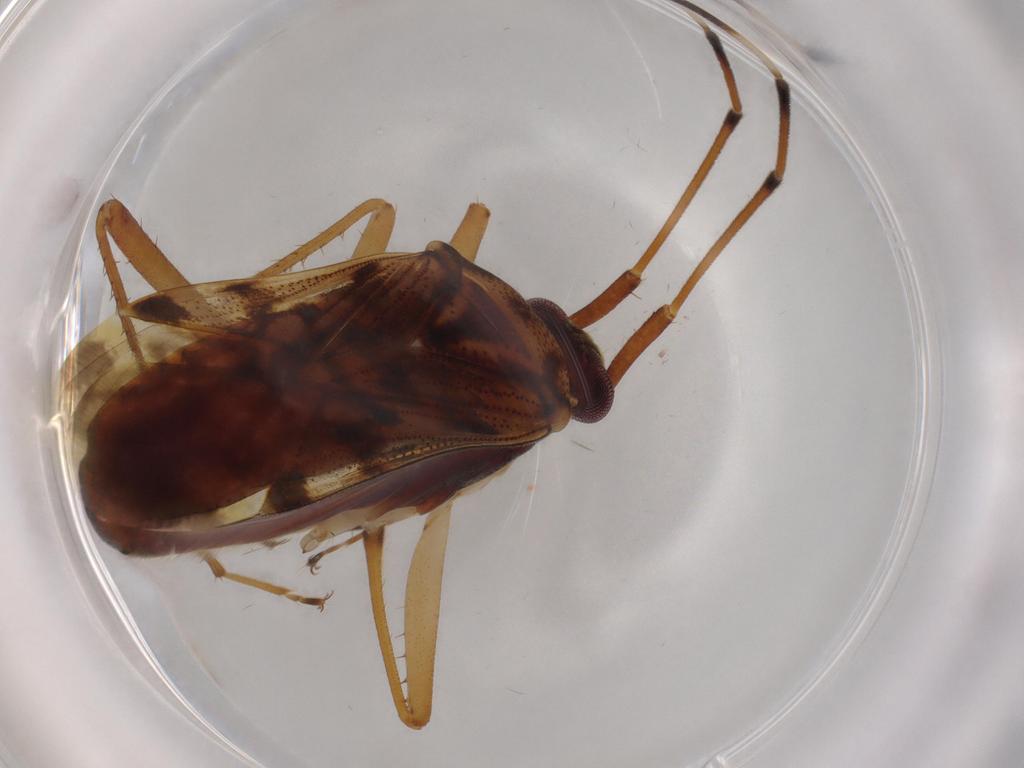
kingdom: Animalia
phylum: Arthropoda
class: Insecta
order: Hemiptera
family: Rhyparochromidae
